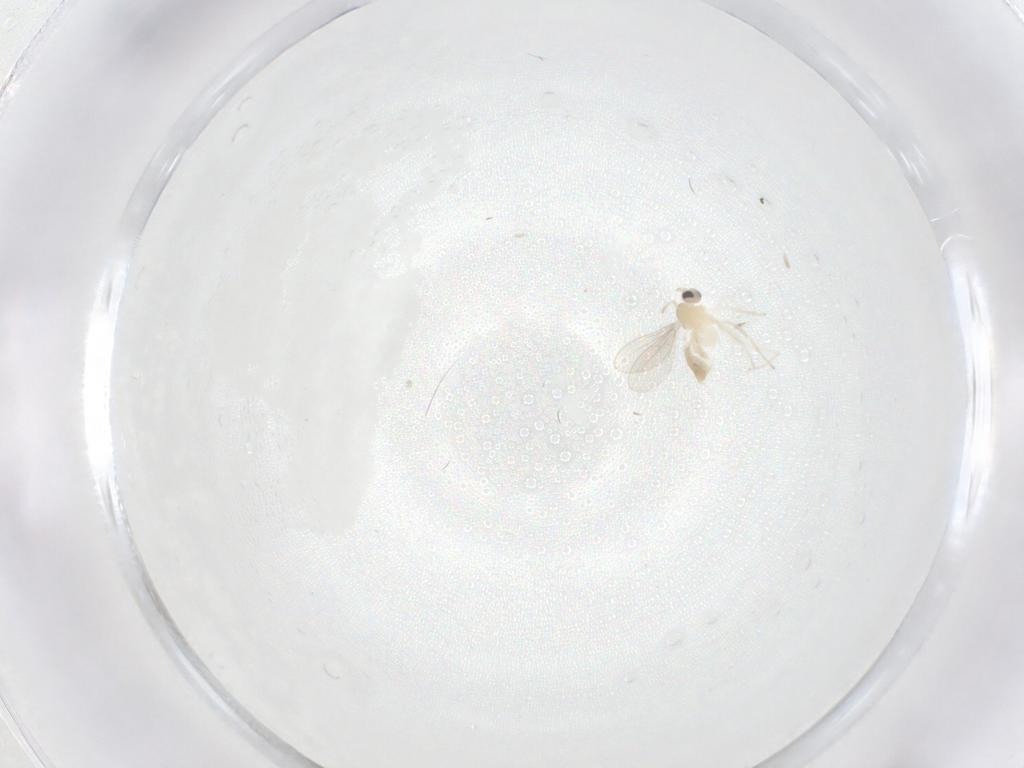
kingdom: Animalia
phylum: Arthropoda
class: Insecta
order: Diptera
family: Cecidomyiidae
